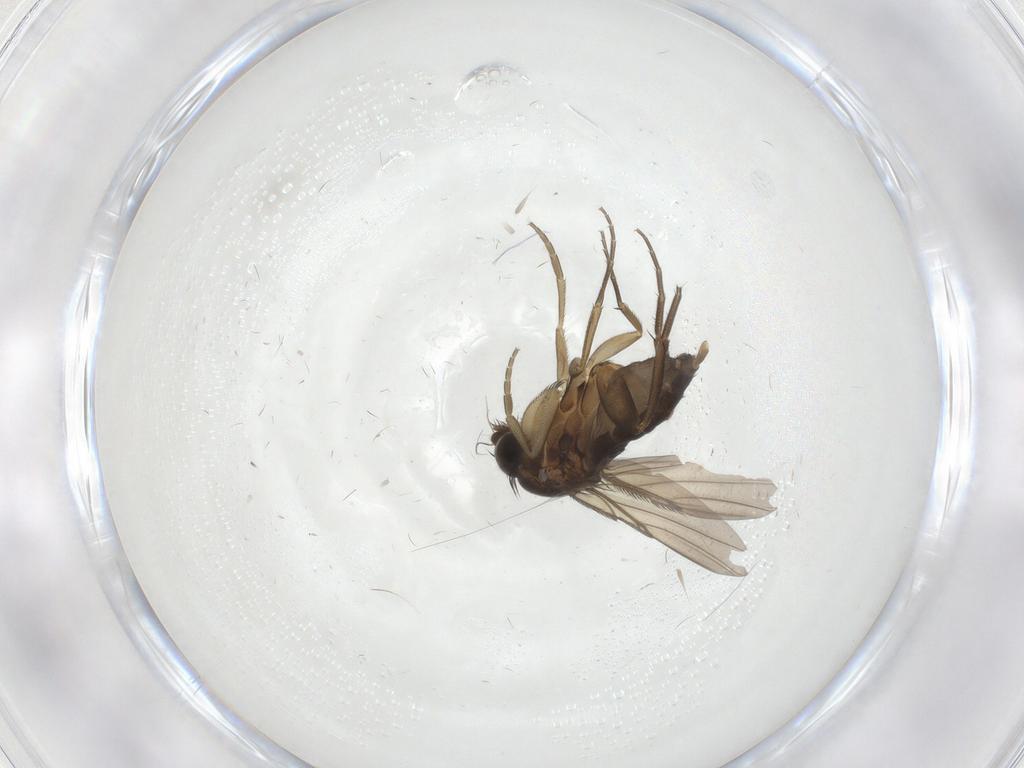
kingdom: Animalia
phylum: Arthropoda
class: Insecta
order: Diptera
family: Phoridae
